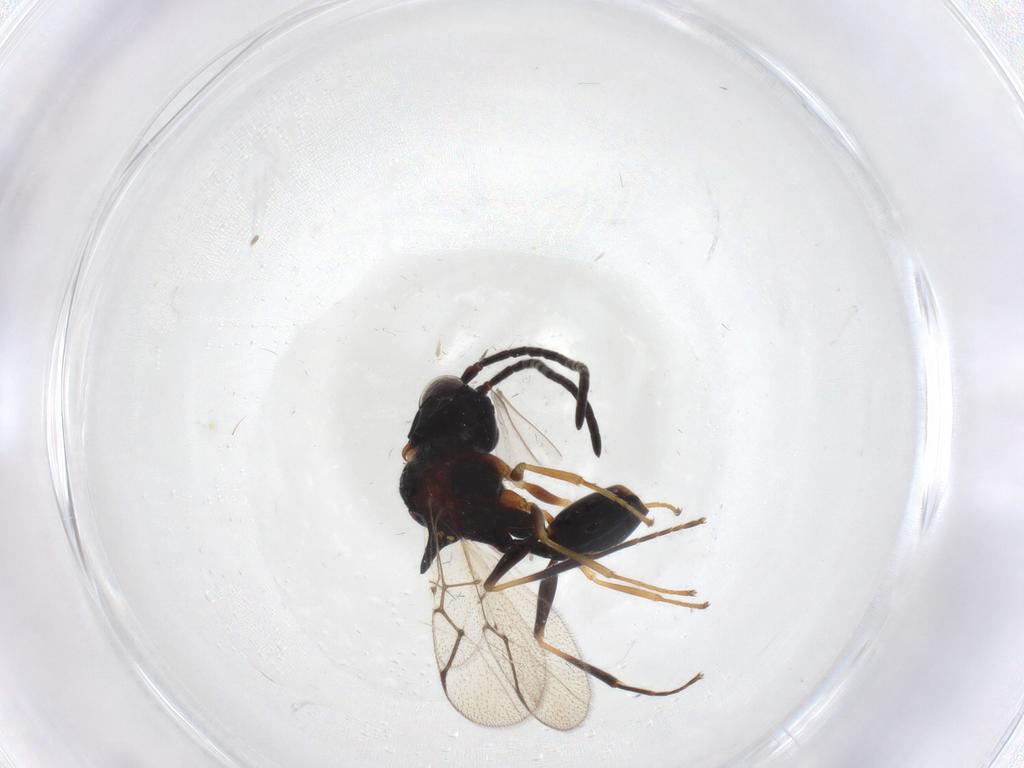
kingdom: Animalia
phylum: Arthropoda
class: Insecta
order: Hymenoptera
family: Figitidae
